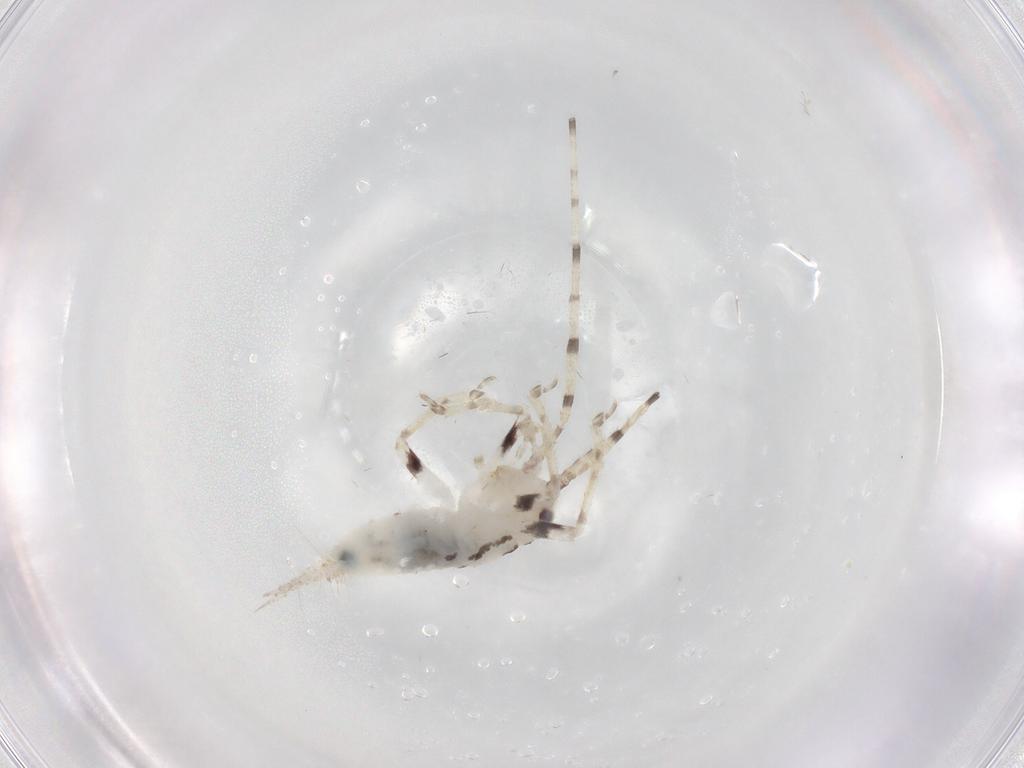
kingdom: Animalia
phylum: Arthropoda
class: Insecta
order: Orthoptera
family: Trigonidiidae
